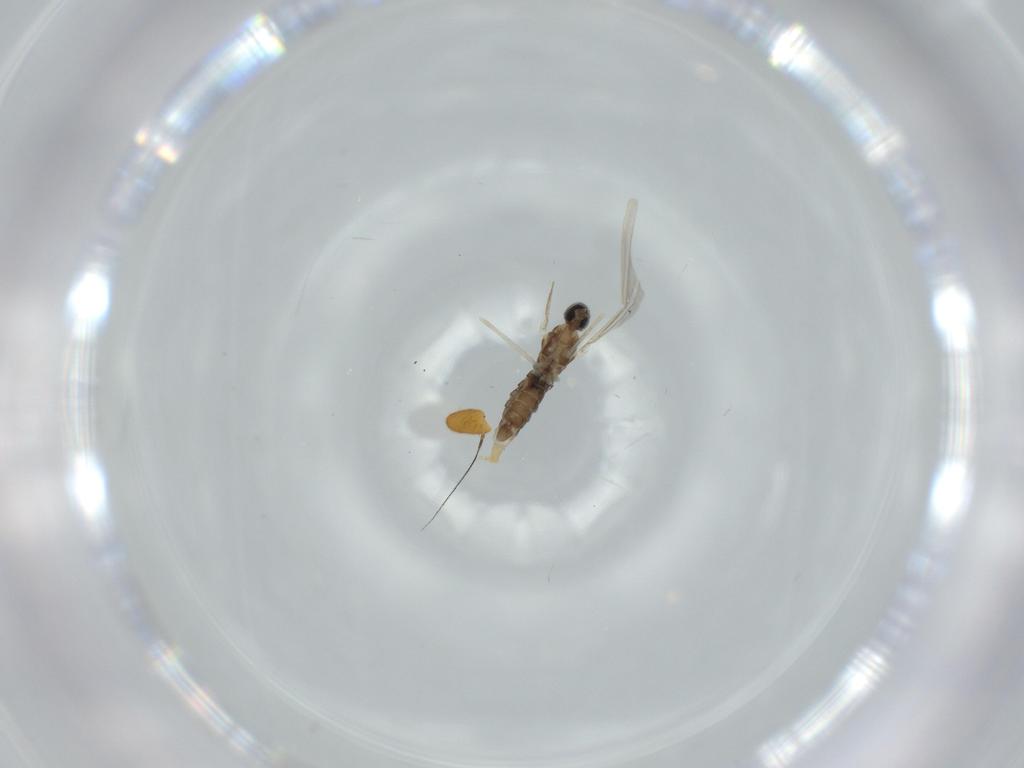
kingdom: Animalia
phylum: Arthropoda
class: Insecta
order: Diptera
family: Cecidomyiidae
